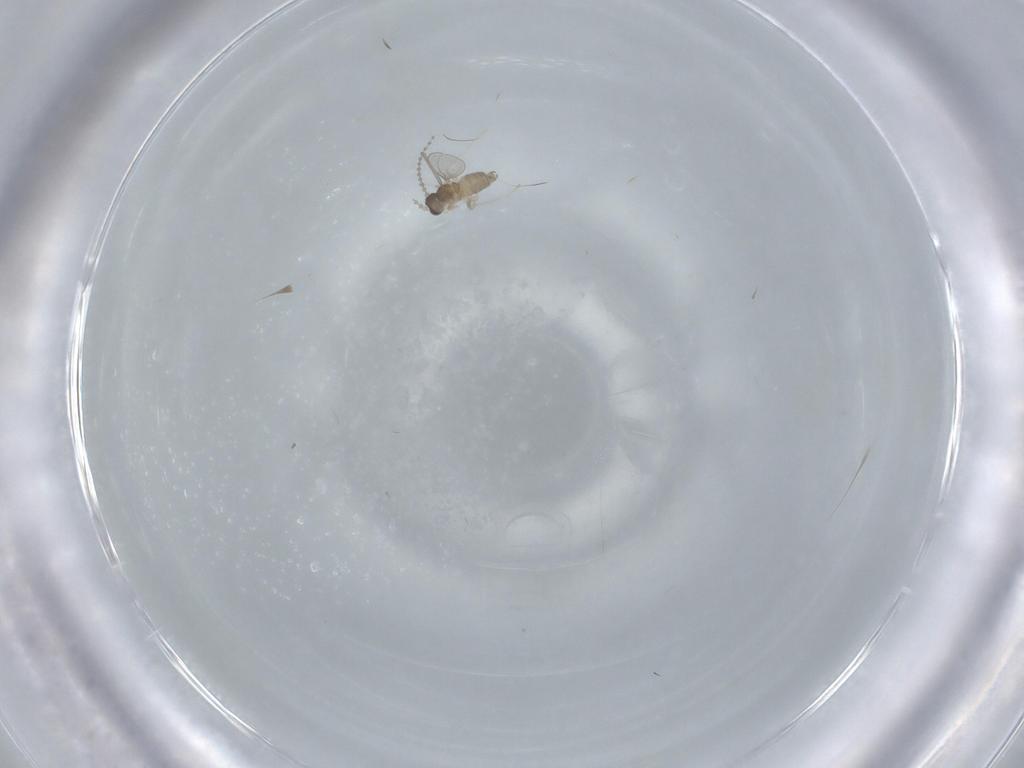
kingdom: Animalia
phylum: Arthropoda
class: Insecta
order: Diptera
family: Cecidomyiidae
